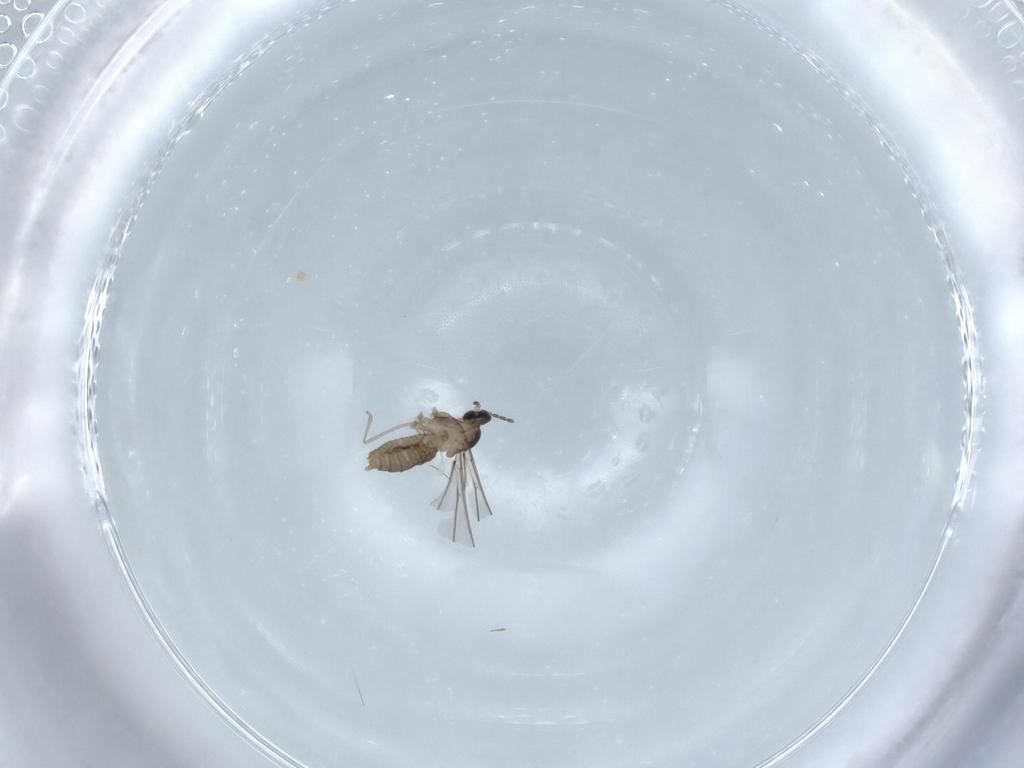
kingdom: Animalia
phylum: Arthropoda
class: Insecta
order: Diptera
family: Cecidomyiidae
